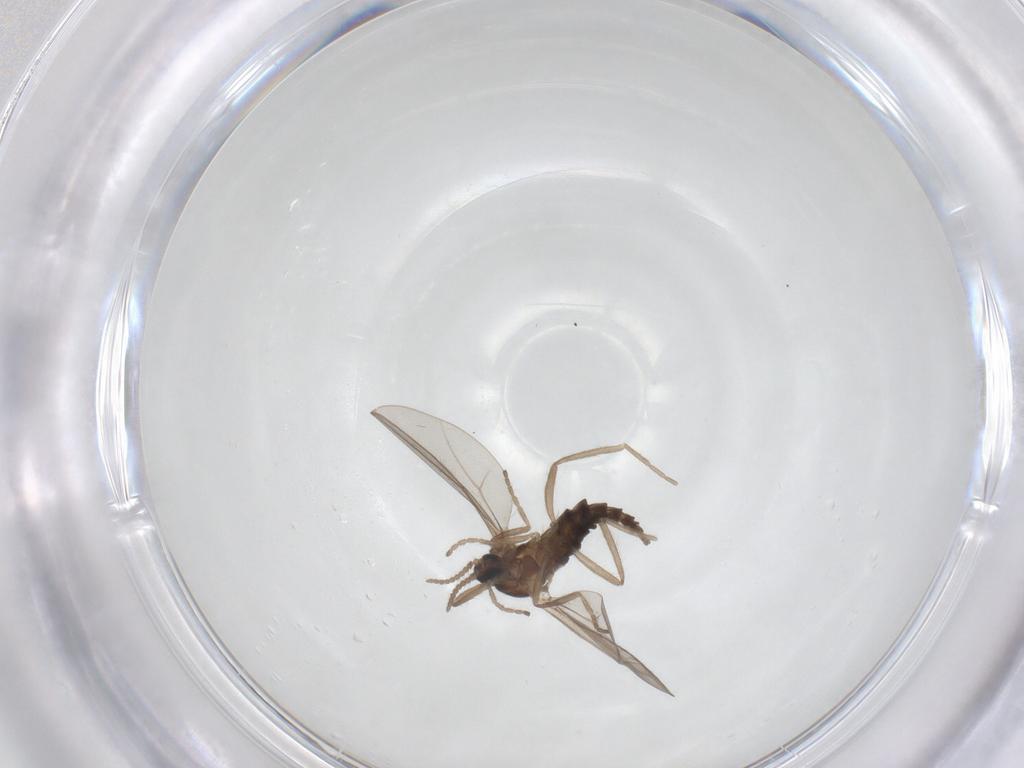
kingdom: Animalia
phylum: Arthropoda
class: Insecta
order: Diptera
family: Cecidomyiidae
